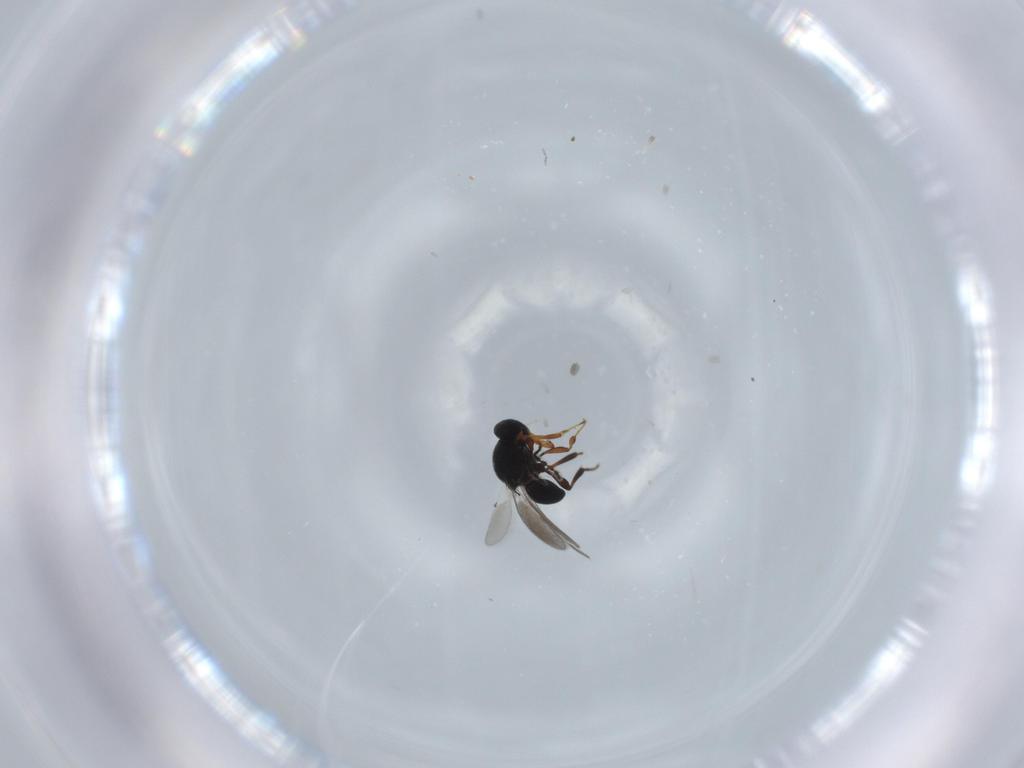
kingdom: Animalia
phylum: Arthropoda
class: Insecta
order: Hymenoptera
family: Platygastridae
